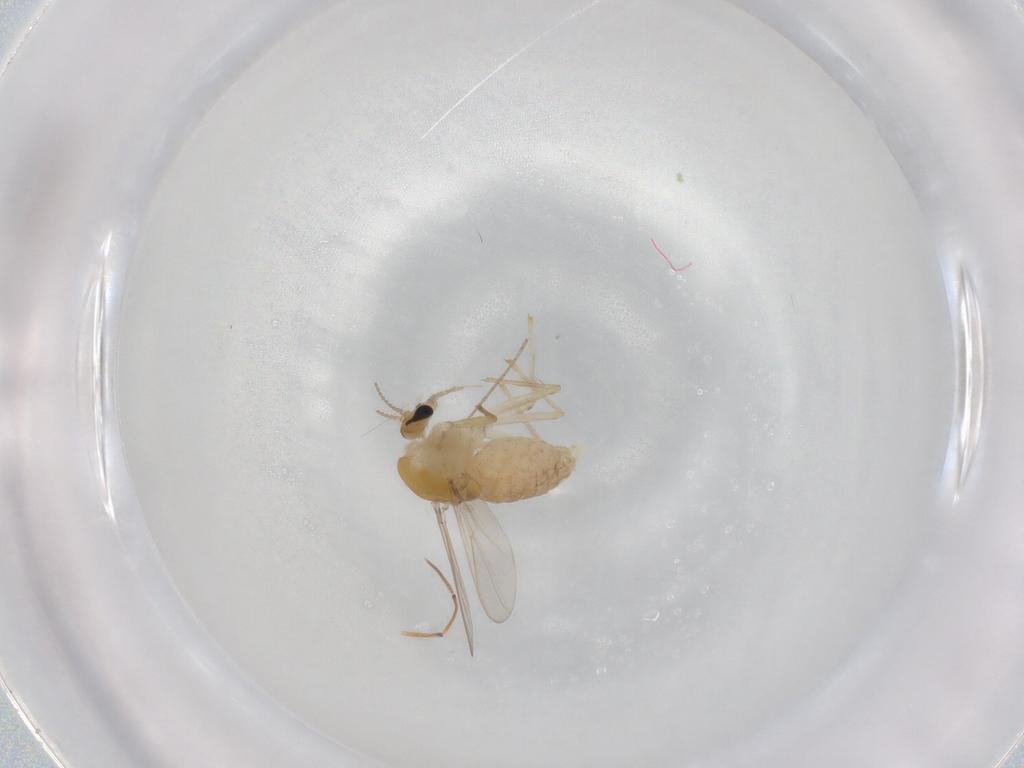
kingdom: Animalia
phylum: Arthropoda
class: Insecta
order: Diptera
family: Chironomidae
